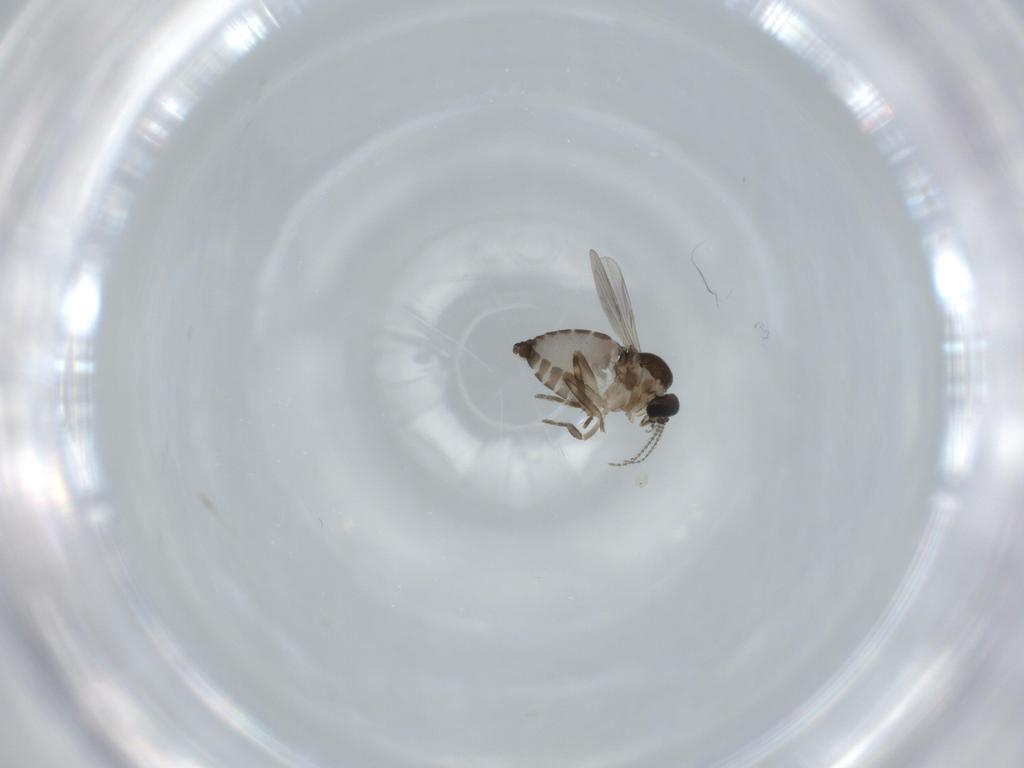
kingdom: Animalia
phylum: Arthropoda
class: Insecta
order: Diptera
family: Ceratopogonidae
